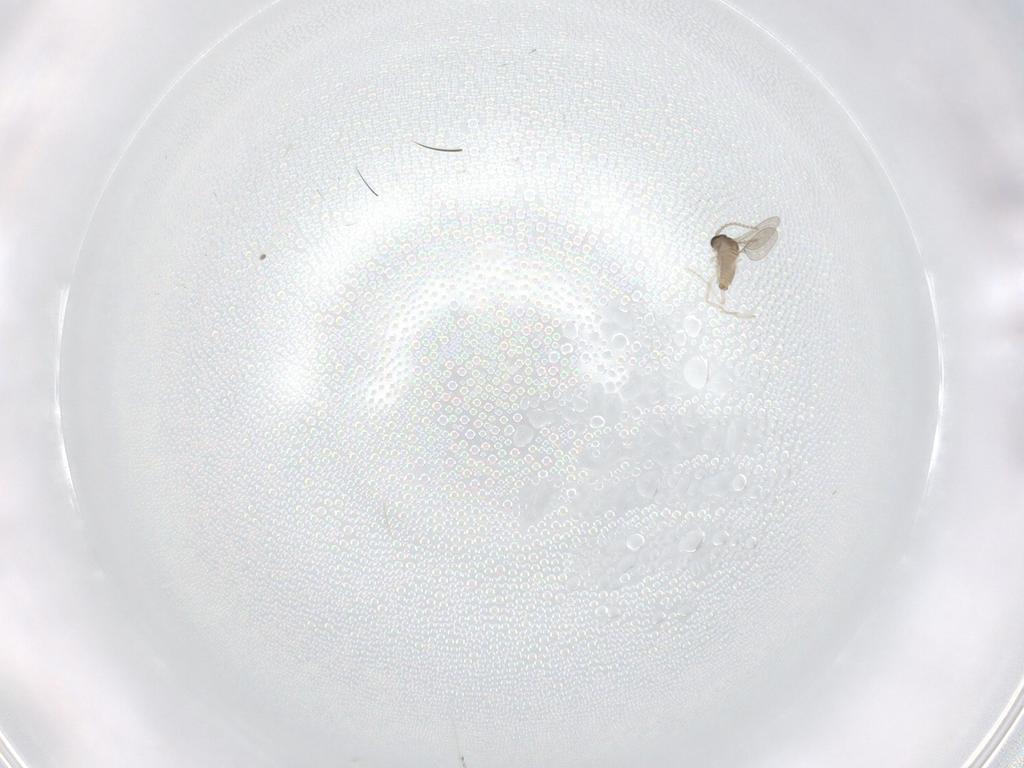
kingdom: Animalia
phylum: Arthropoda
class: Insecta
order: Diptera
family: Cecidomyiidae
